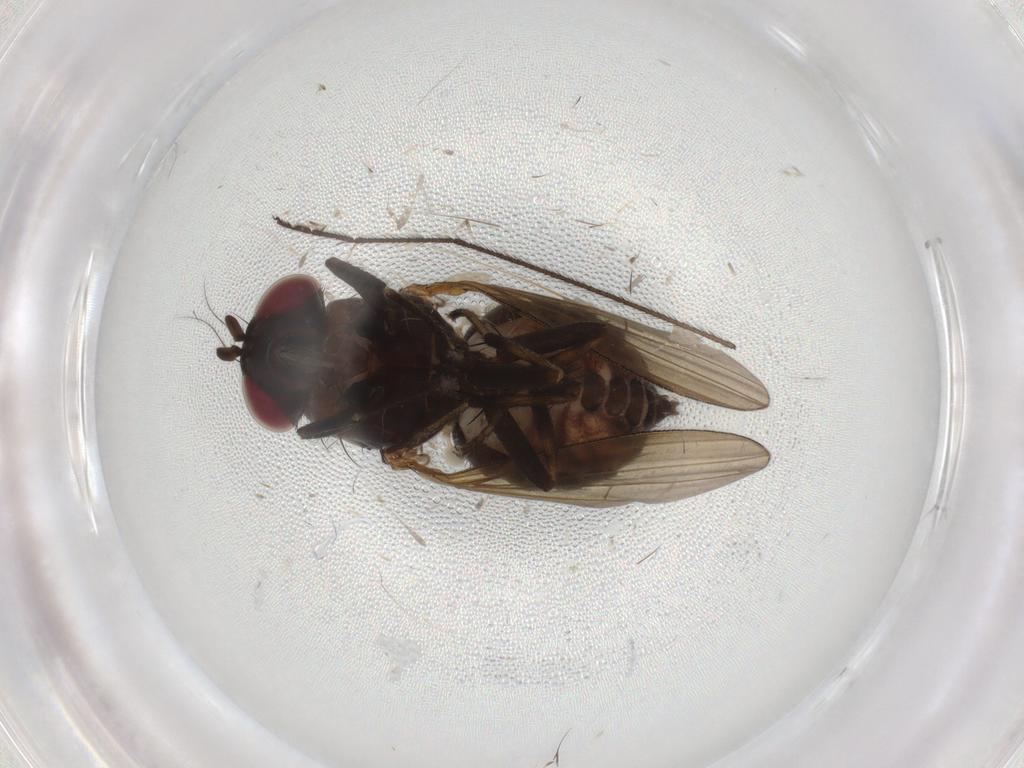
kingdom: Animalia
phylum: Arthropoda
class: Insecta
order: Diptera
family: Lauxaniidae
